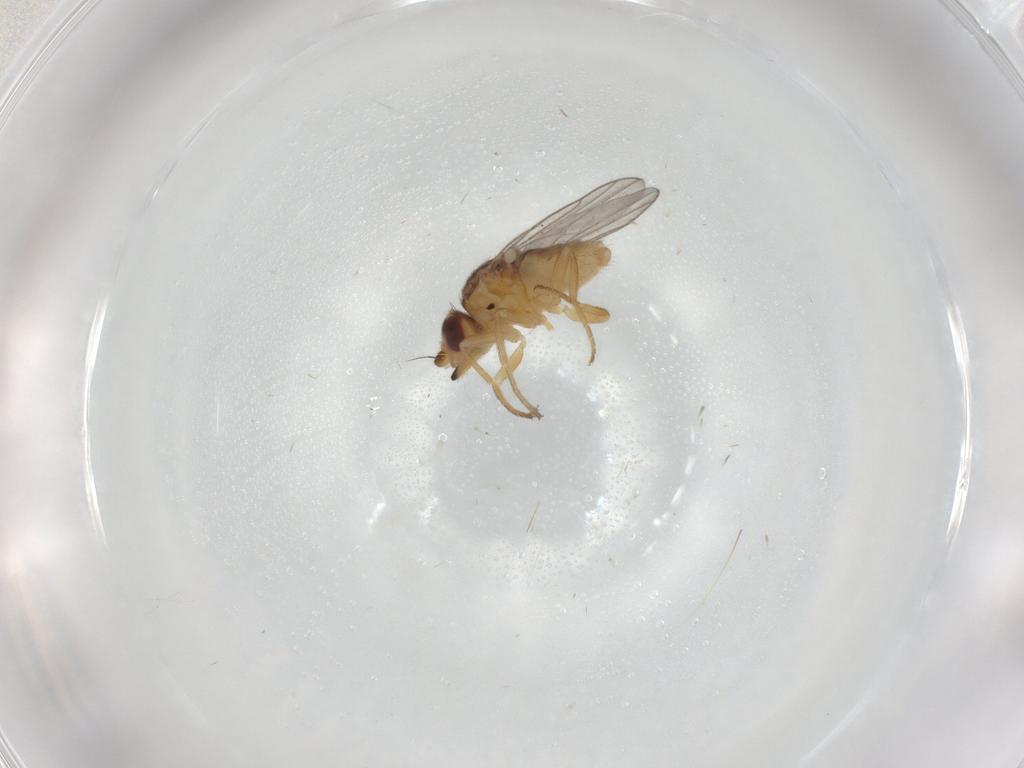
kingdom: Animalia
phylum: Arthropoda
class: Insecta
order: Diptera
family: Chloropidae
